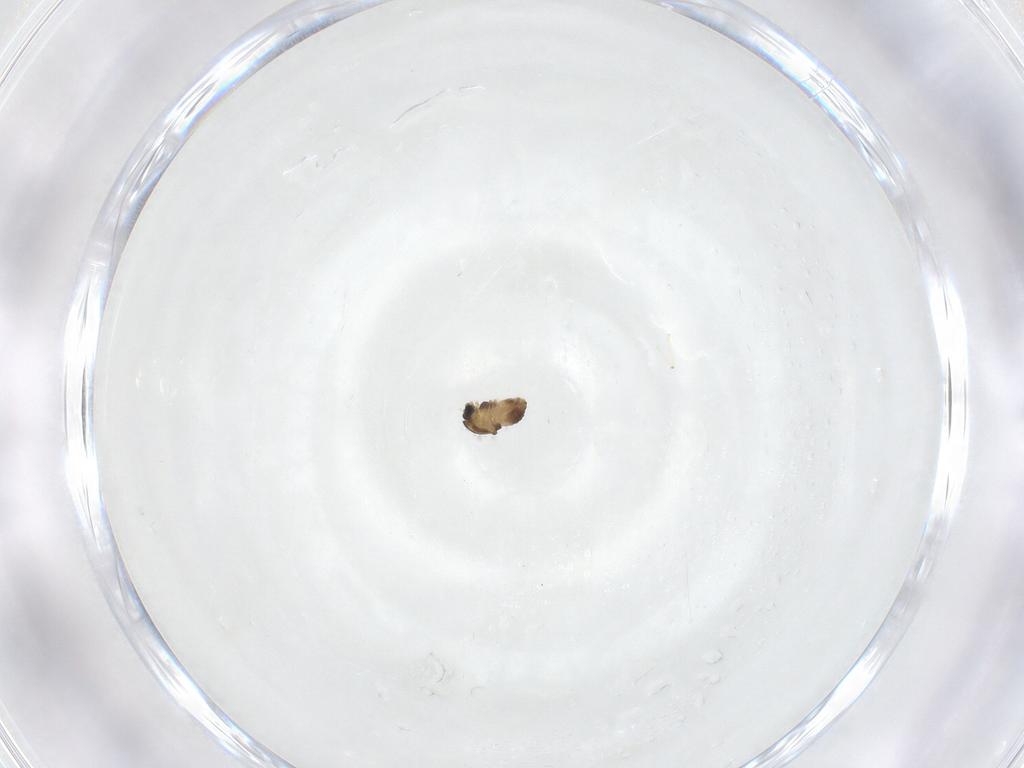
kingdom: Animalia
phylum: Arthropoda
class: Insecta
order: Diptera
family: Chironomidae
